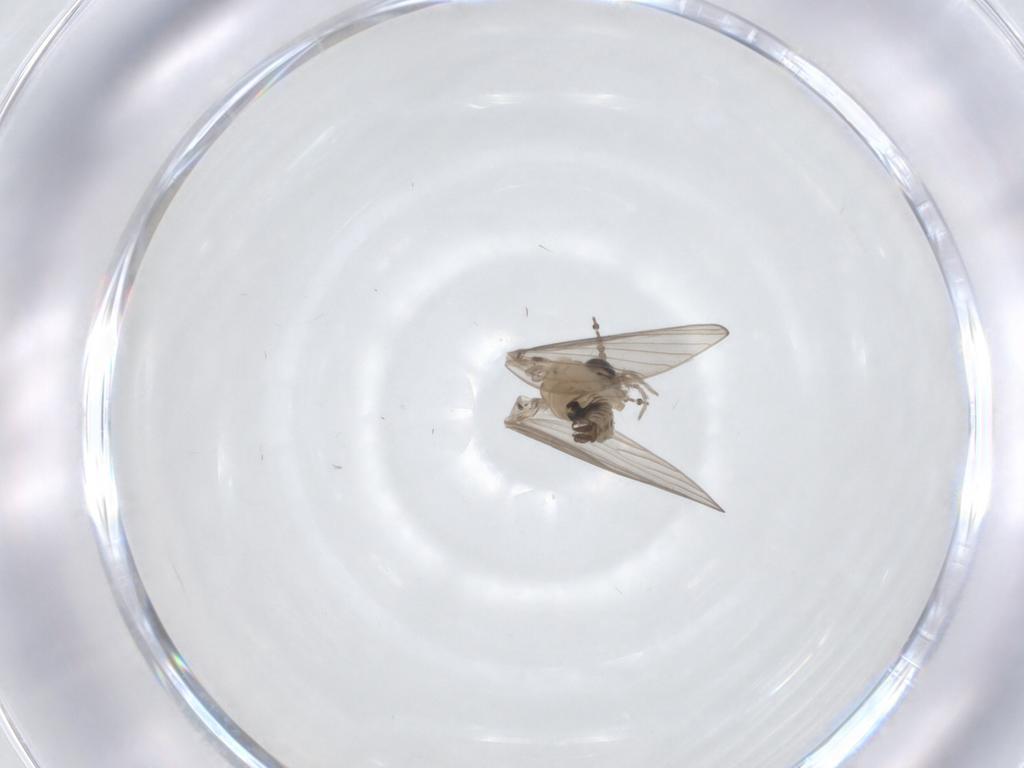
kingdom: Animalia
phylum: Arthropoda
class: Insecta
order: Diptera
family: Psychodidae
